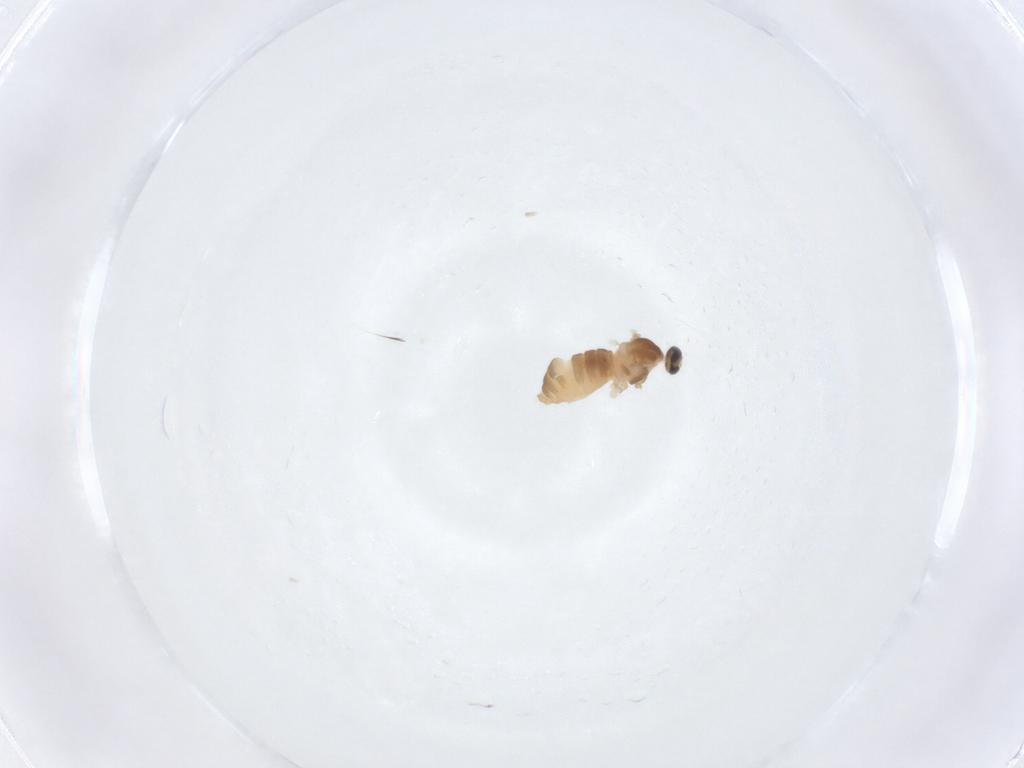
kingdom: Animalia
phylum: Arthropoda
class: Insecta
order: Diptera
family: Cecidomyiidae
